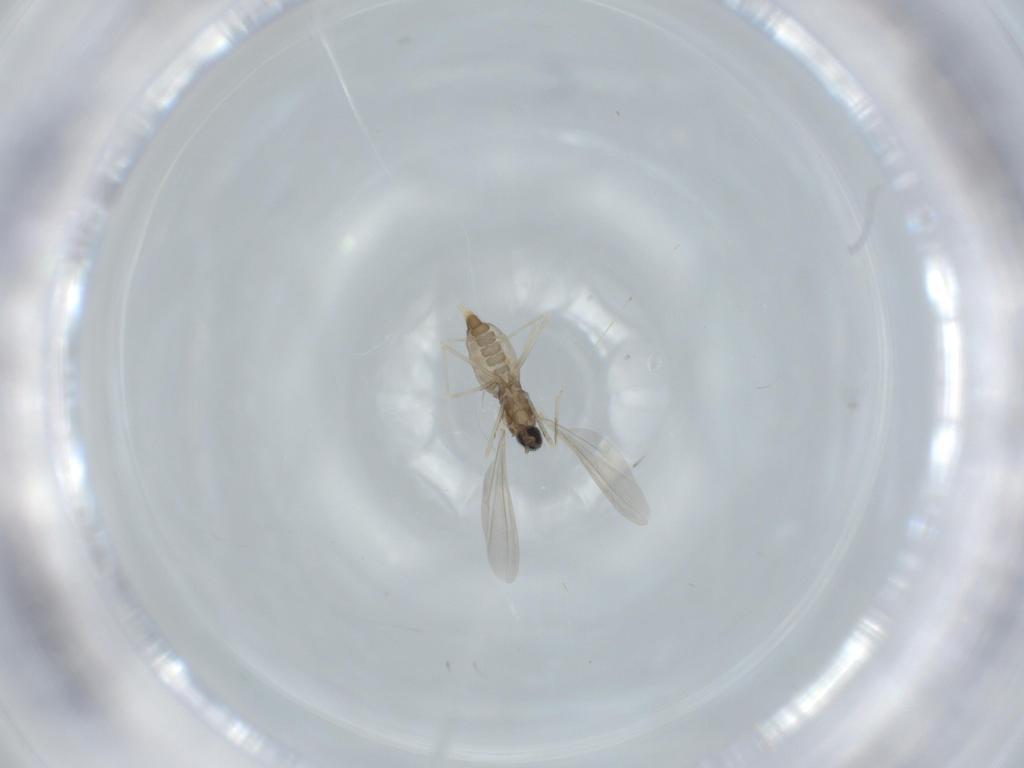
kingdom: Animalia
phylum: Arthropoda
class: Insecta
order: Diptera
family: Cecidomyiidae
